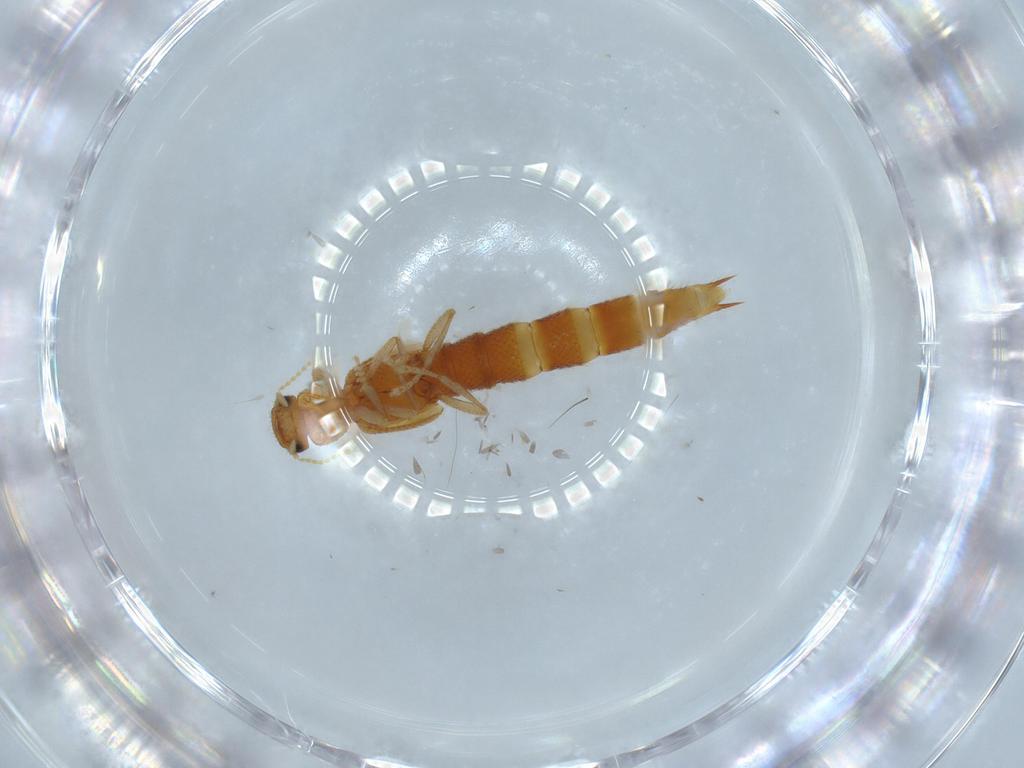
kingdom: Animalia
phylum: Arthropoda
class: Insecta
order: Coleoptera
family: Staphylinidae
